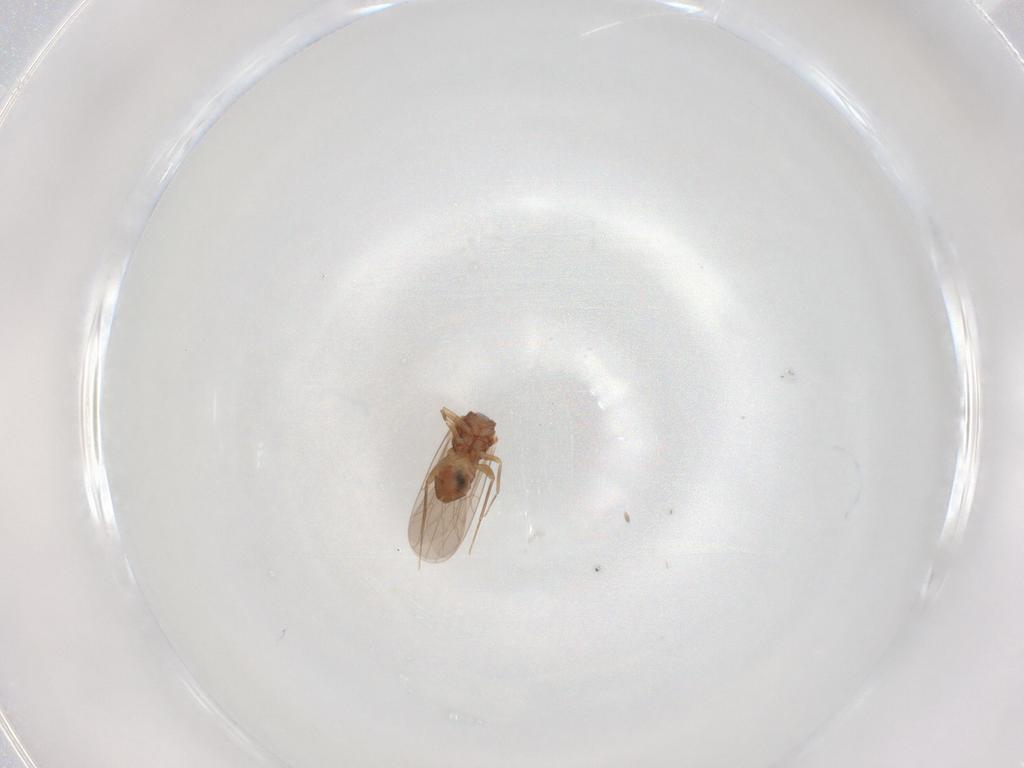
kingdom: Animalia
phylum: Arthropoda
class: Insecta
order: Psocodea
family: Lepidopsocidae
